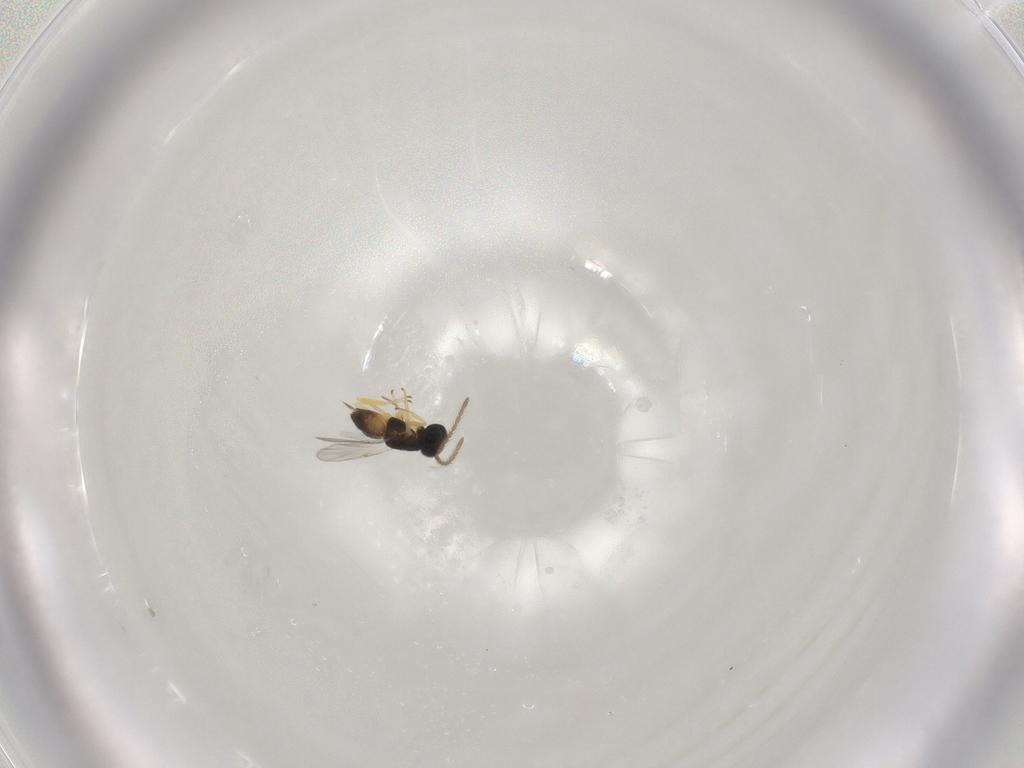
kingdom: Animalia
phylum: Arthropoda
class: Insecta
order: Hymenoptera
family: Encyrtidae
